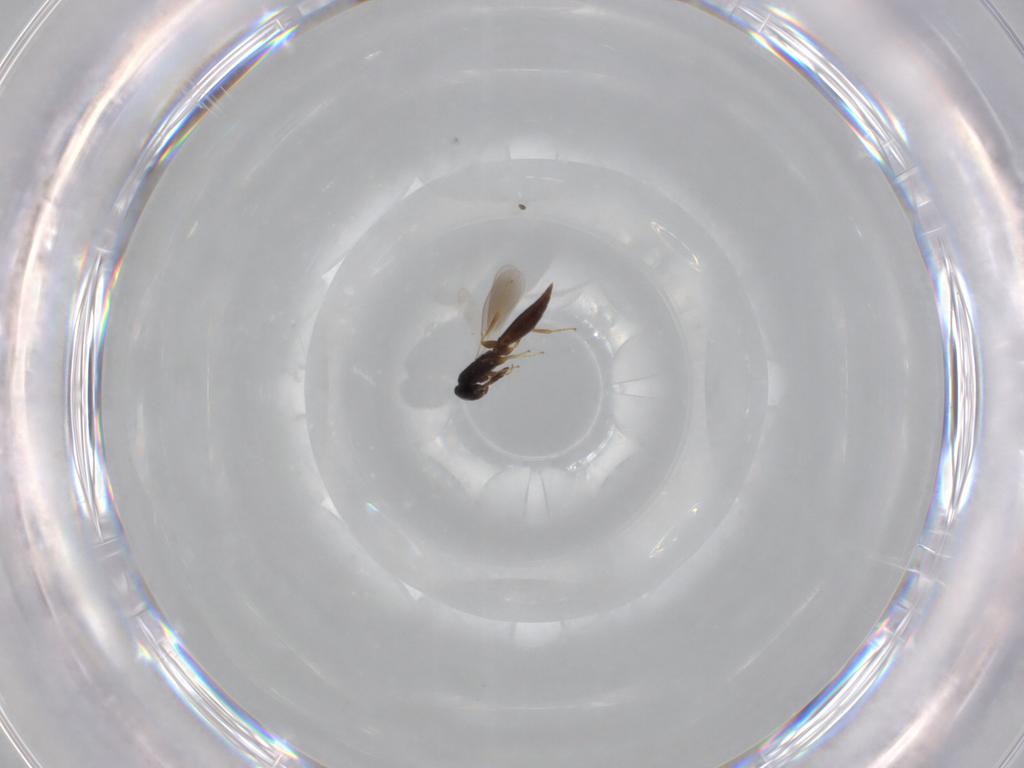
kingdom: Animalia
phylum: Arthropoda
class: Insecta
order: Hymenoptera
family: Platygastridae
